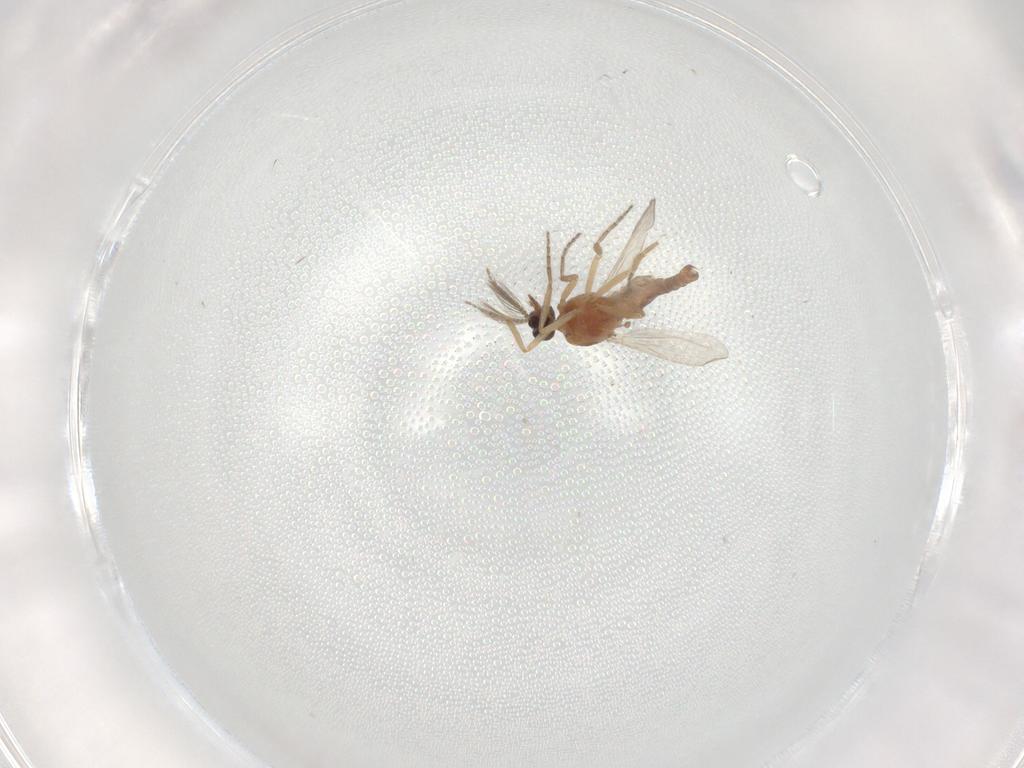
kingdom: Animalia
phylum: Arthropoda
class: Insecta
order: Diptera
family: Ceratopogonidae
